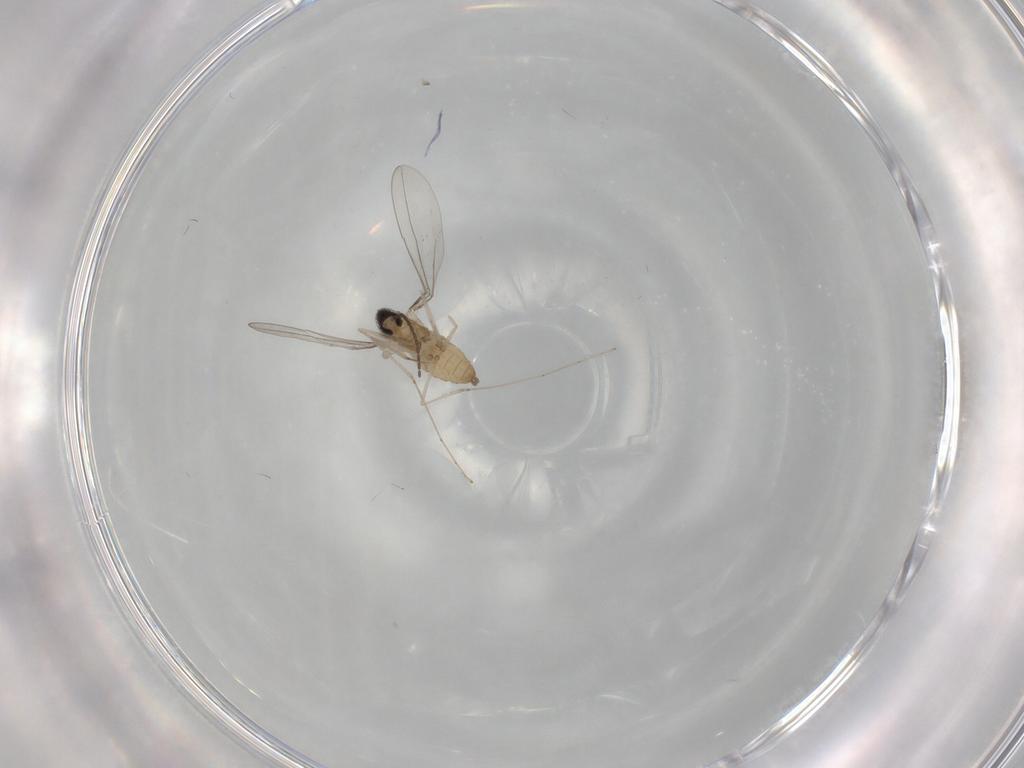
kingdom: Animalia
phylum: Arthropoda
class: Insecta
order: Diptera
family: Cecidomyiidae
